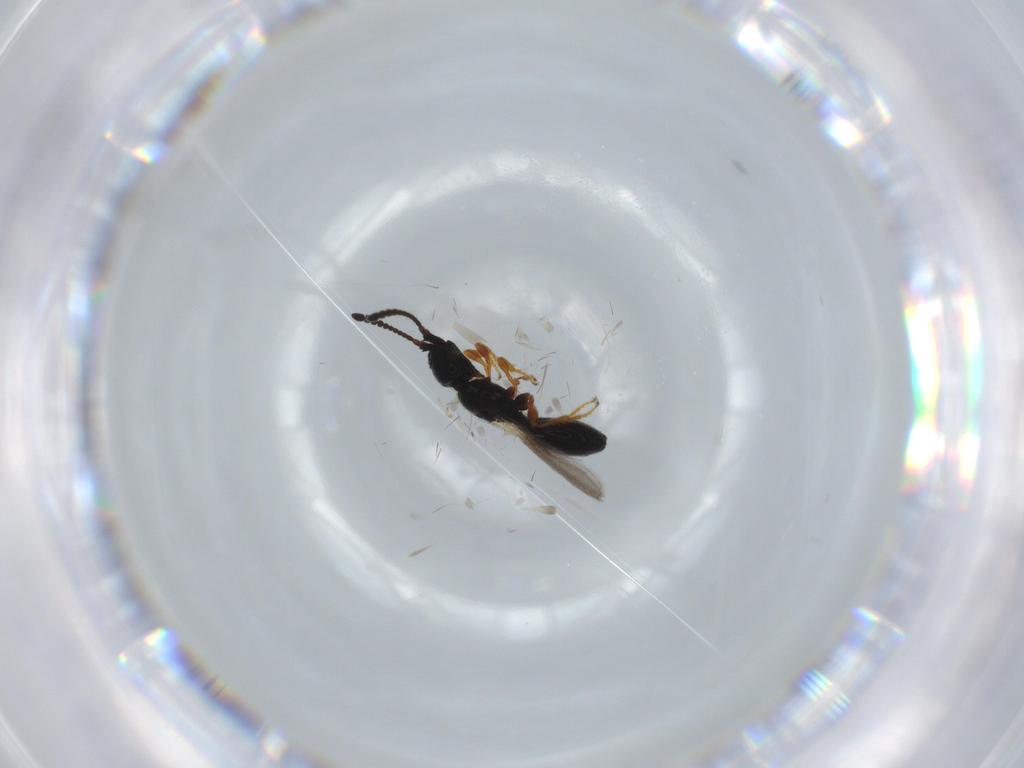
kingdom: Animalia
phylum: Arthropoda
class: Insecta
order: Hymenoptera
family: Diapriidae
